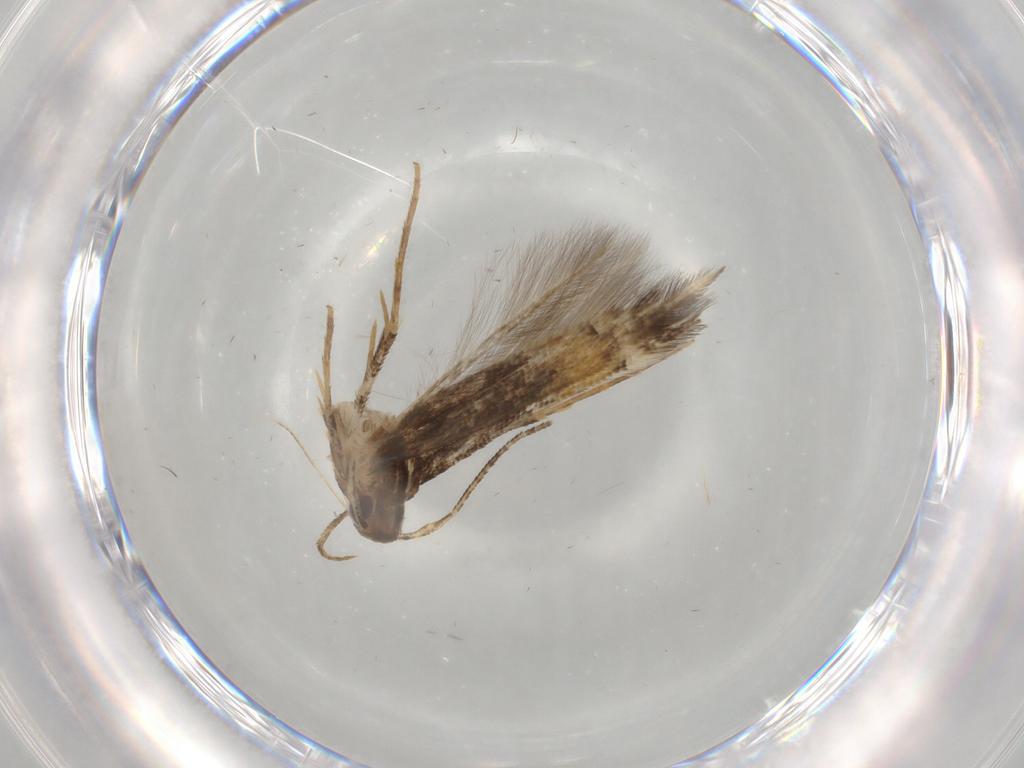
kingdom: Animalia
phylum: Arthropoda
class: Insecta
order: Lepidoptera
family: Cosmopterigidae
